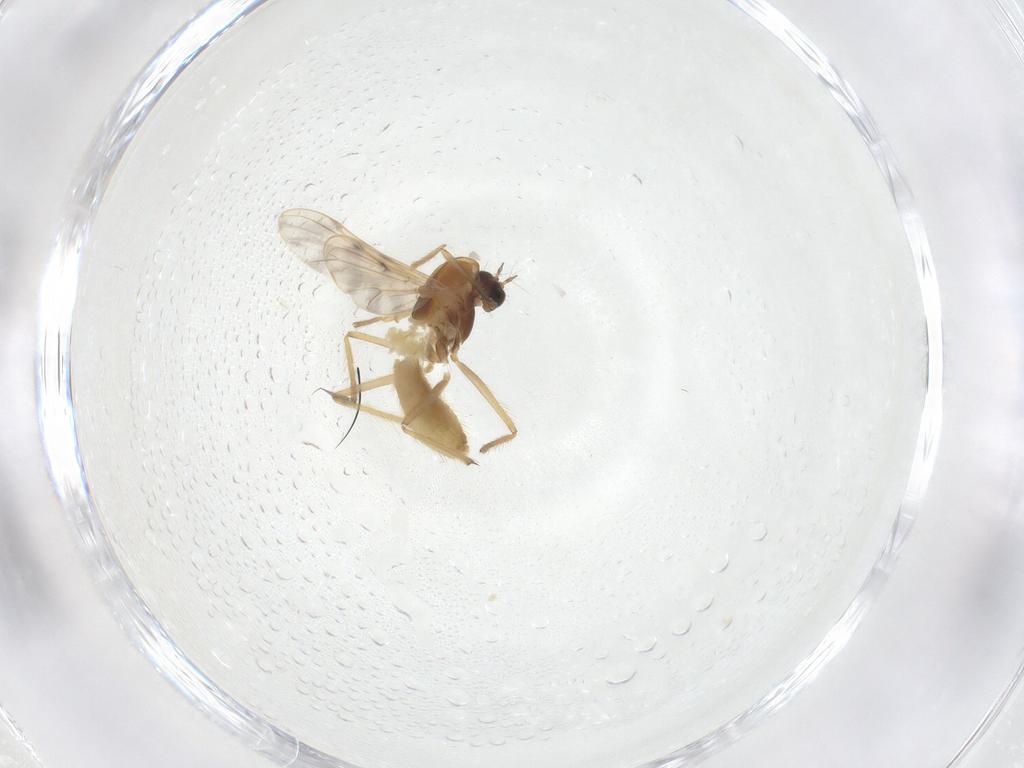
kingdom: Animalia
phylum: Arthropoda
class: Insecta
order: Diptera
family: Chironomidae
